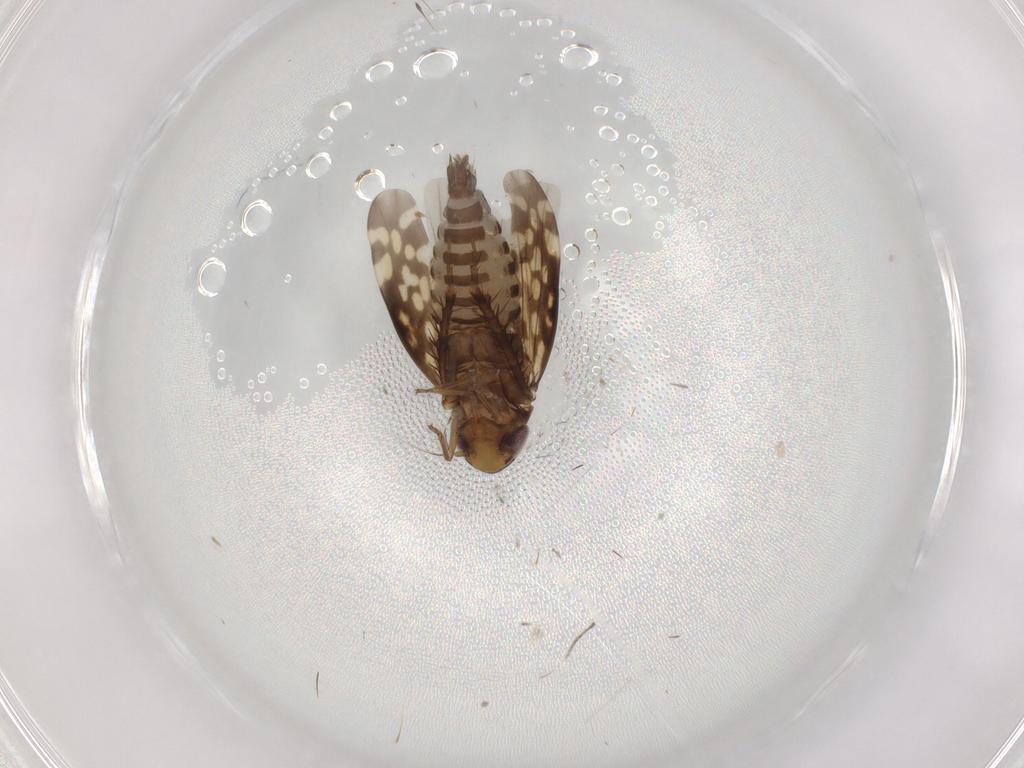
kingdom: Animalia
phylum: Arthropoda
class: Insecta
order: Hemiptera
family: Cicadellidae
